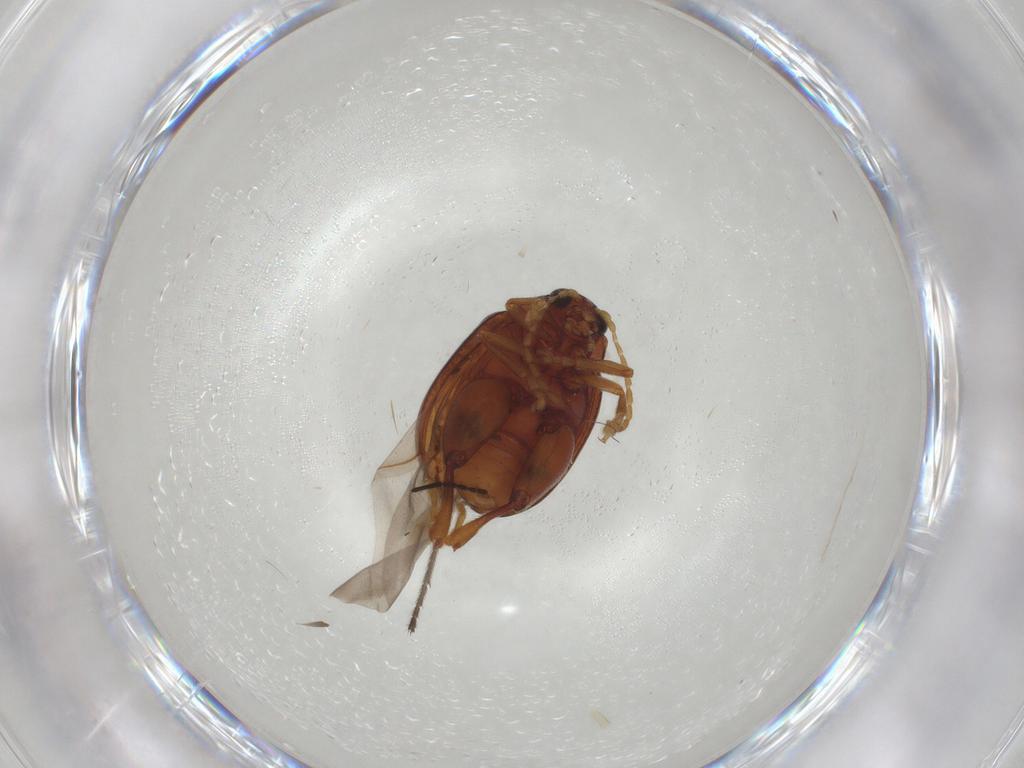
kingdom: Animalia
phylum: Arthropoda
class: Insecta
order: Coleoptera
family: Chrysomelidae
